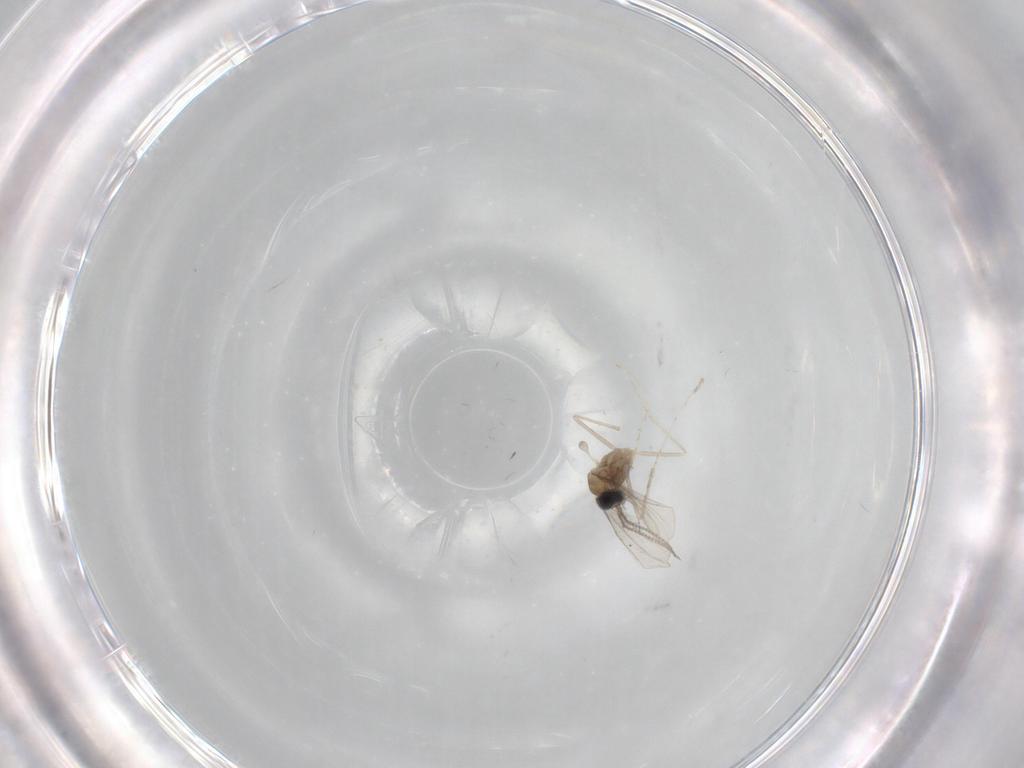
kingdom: Animalia
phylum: Arthropoda
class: Insecta
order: Diptera
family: Cecidomyiidae
